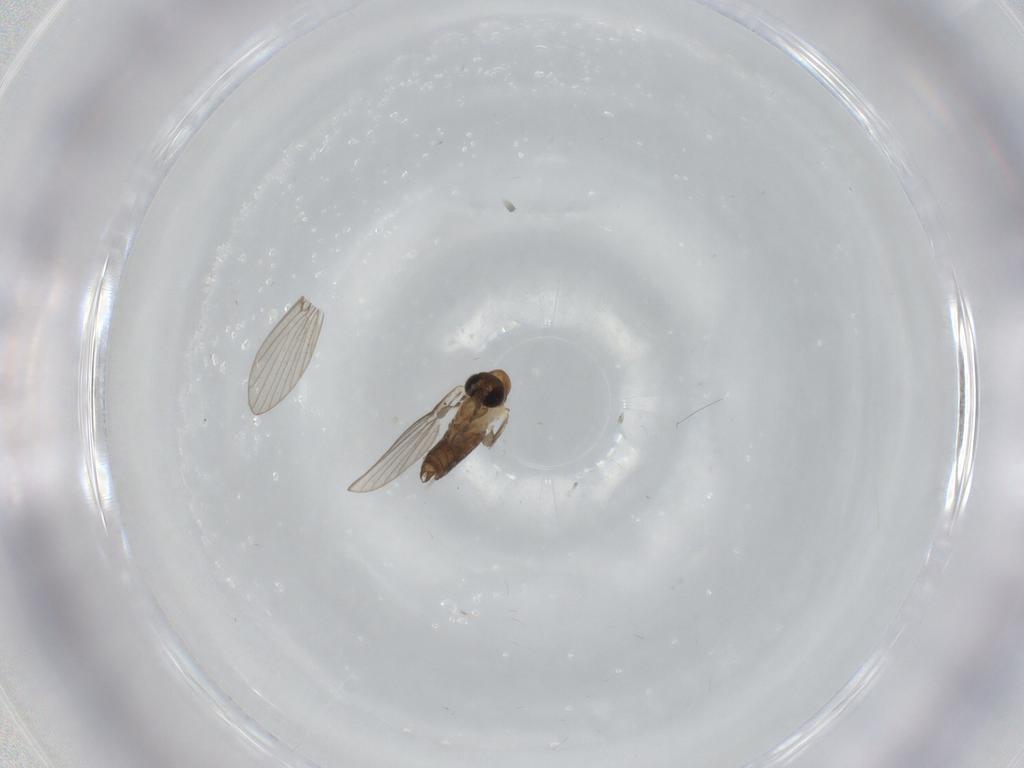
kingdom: Animalia
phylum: Arthropoda
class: Insecta
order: Diptera
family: Psychodidae
